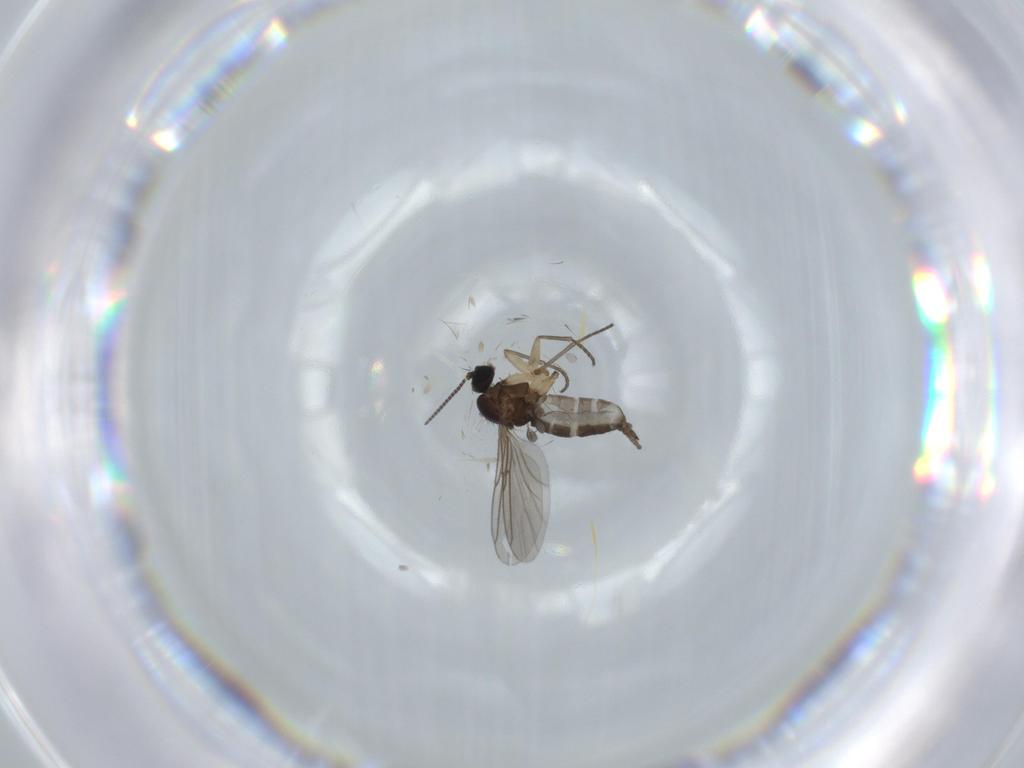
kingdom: Animalia
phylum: Arthropoda
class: Insecta
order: Diptera
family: Sciaridae
